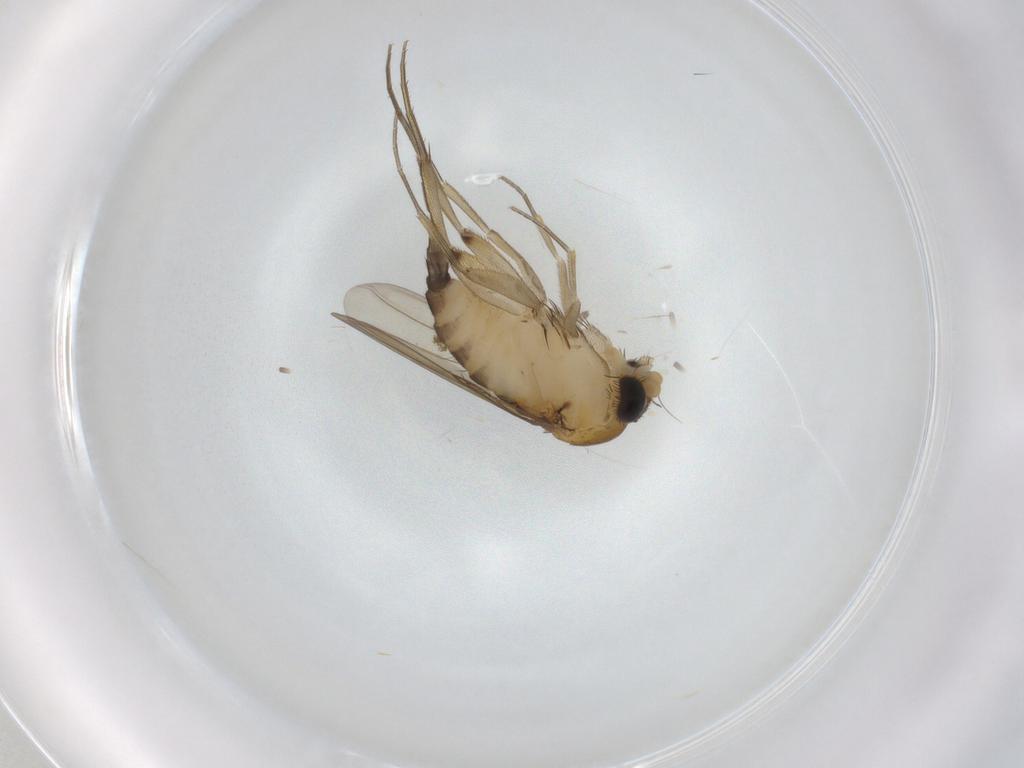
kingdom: Animalia
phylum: Arthropoda
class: Insecta
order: Diptera
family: Phoridae
